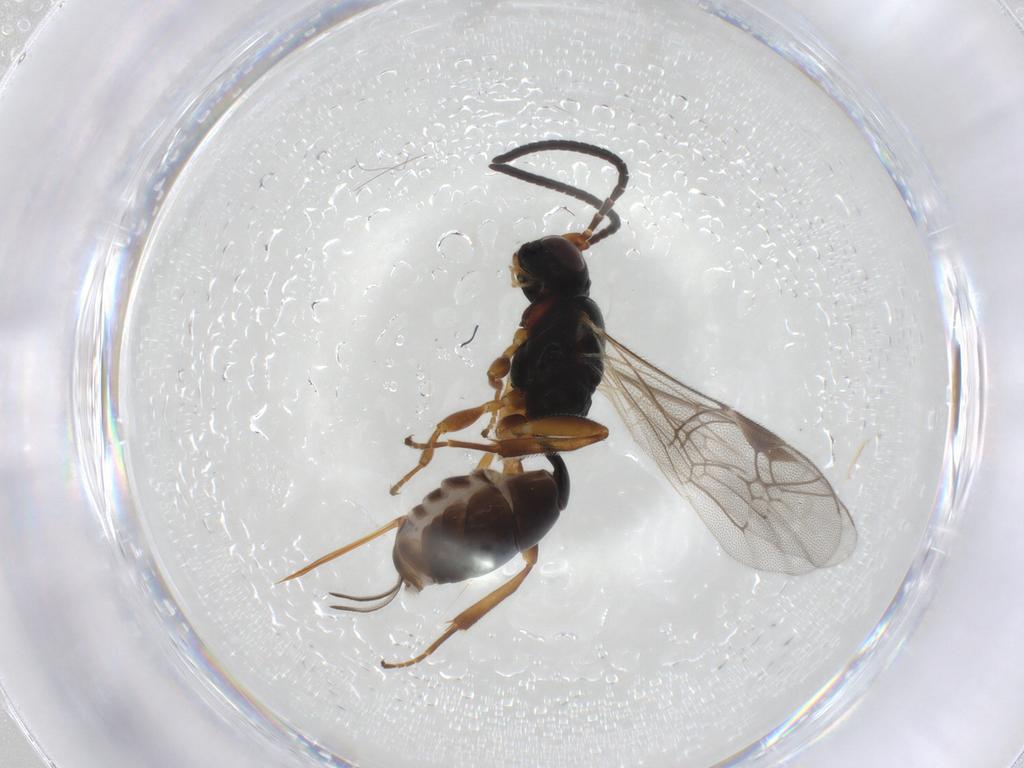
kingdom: Animalia
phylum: Arthropoda
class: Insecta
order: Hymenoptera
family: Ichneumonidae
